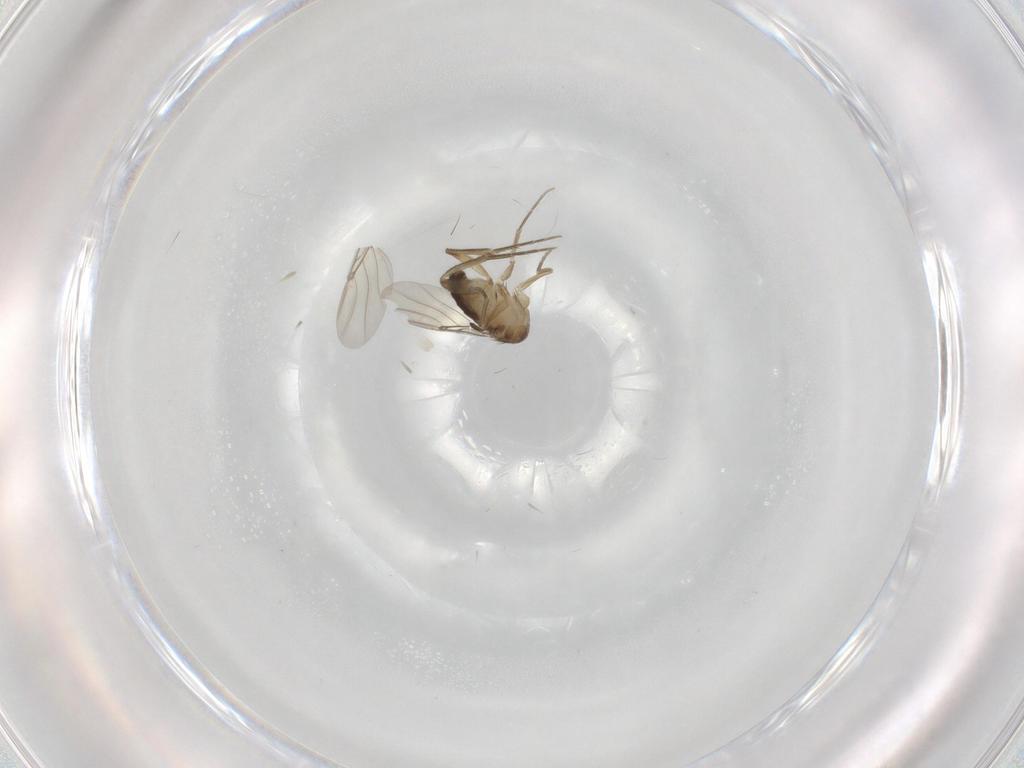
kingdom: Animalia
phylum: Arthropoda
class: Insecta
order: Diptera
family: Phoridae
